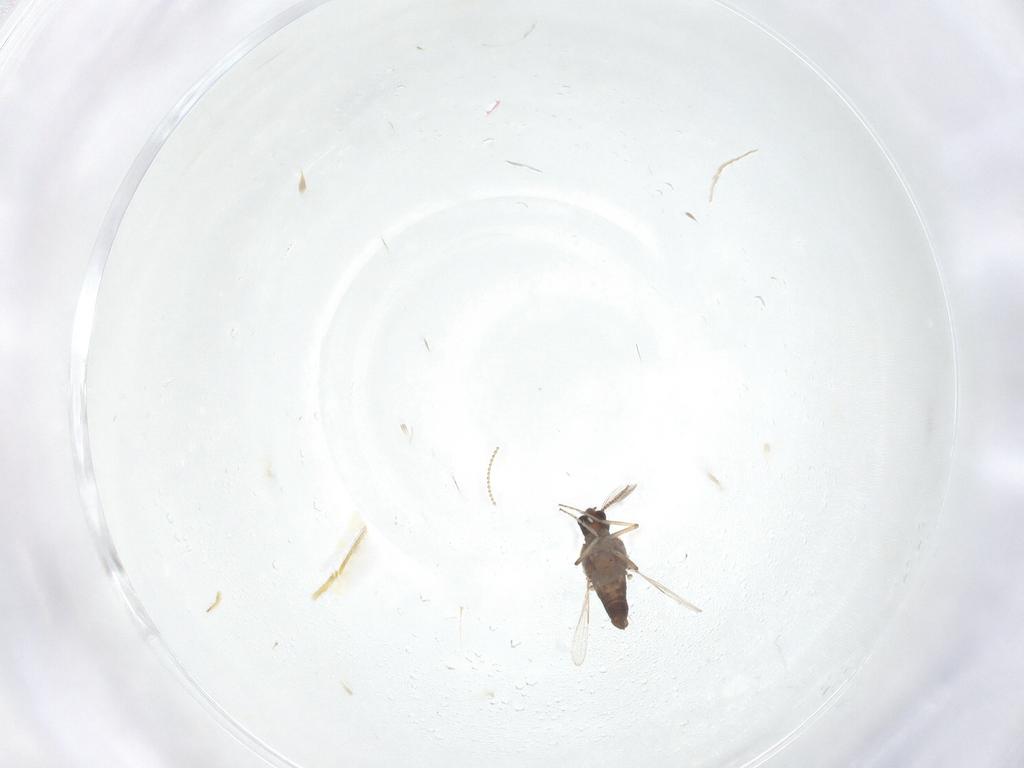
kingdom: Animalia
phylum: Arthropoda
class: Insecta
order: Diptera
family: Ceratopogonidae
